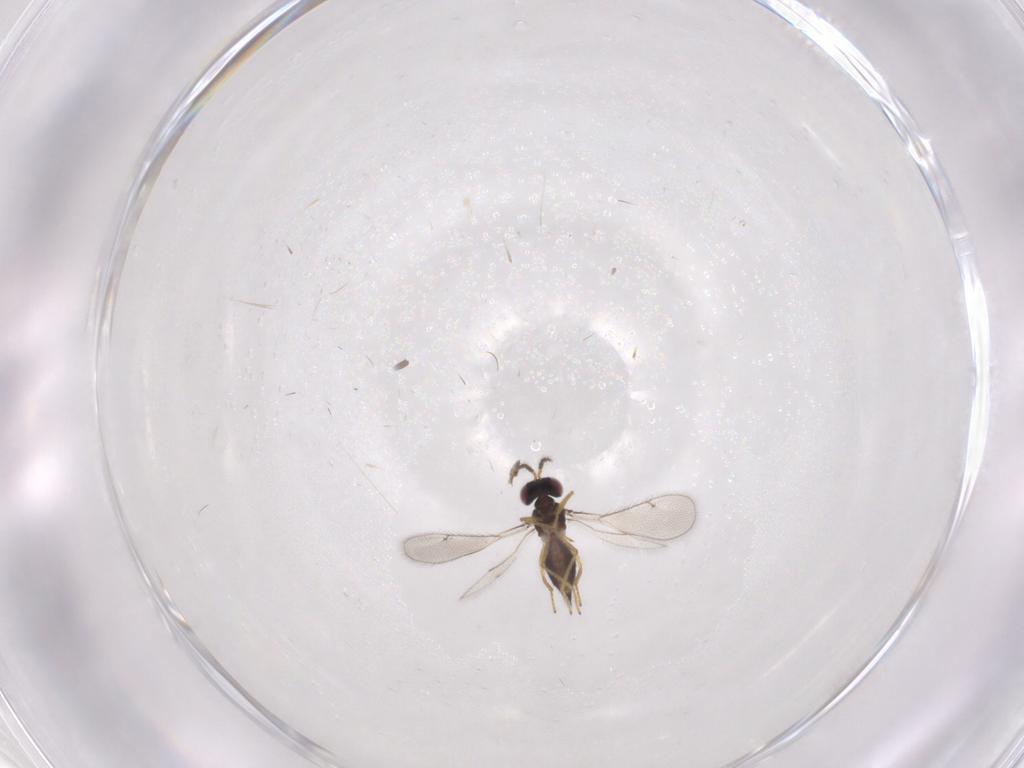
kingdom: Animalia
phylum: Arthropoda
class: Insecta
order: Hymenoptera
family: Eulophidae
